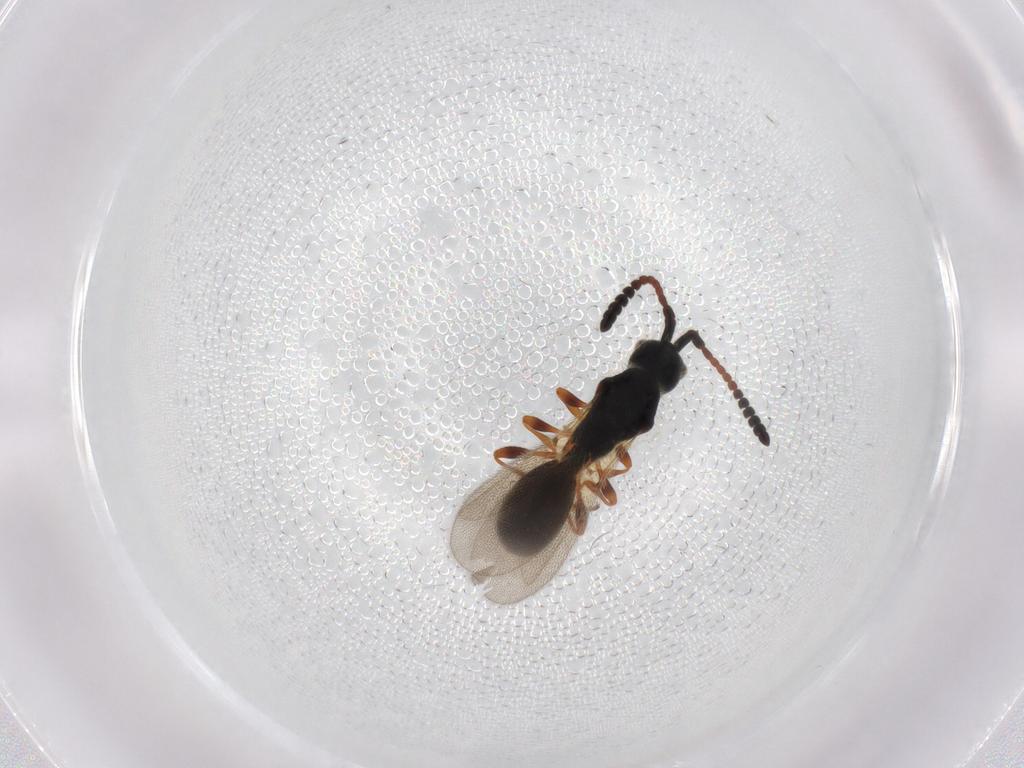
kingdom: Animalia
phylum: Arthropoda
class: Insecta
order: Hymenoptera
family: Diapriidae
